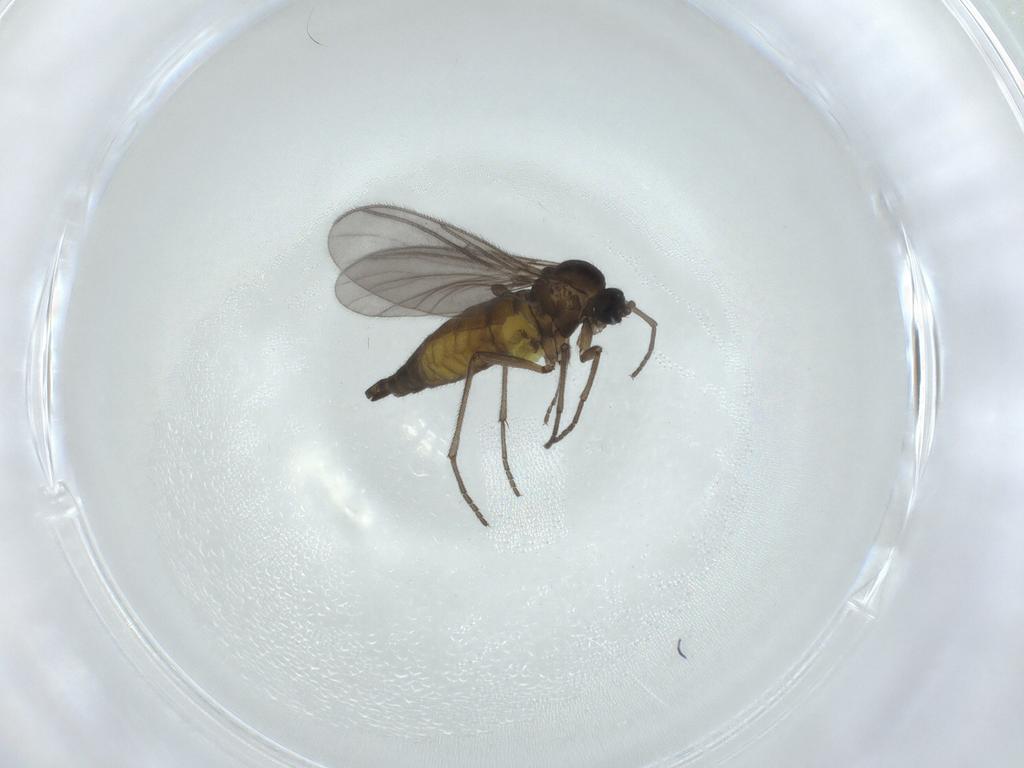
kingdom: Animalia
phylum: Arthropoda
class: Insecta
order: Diptera
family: Sciaridae
